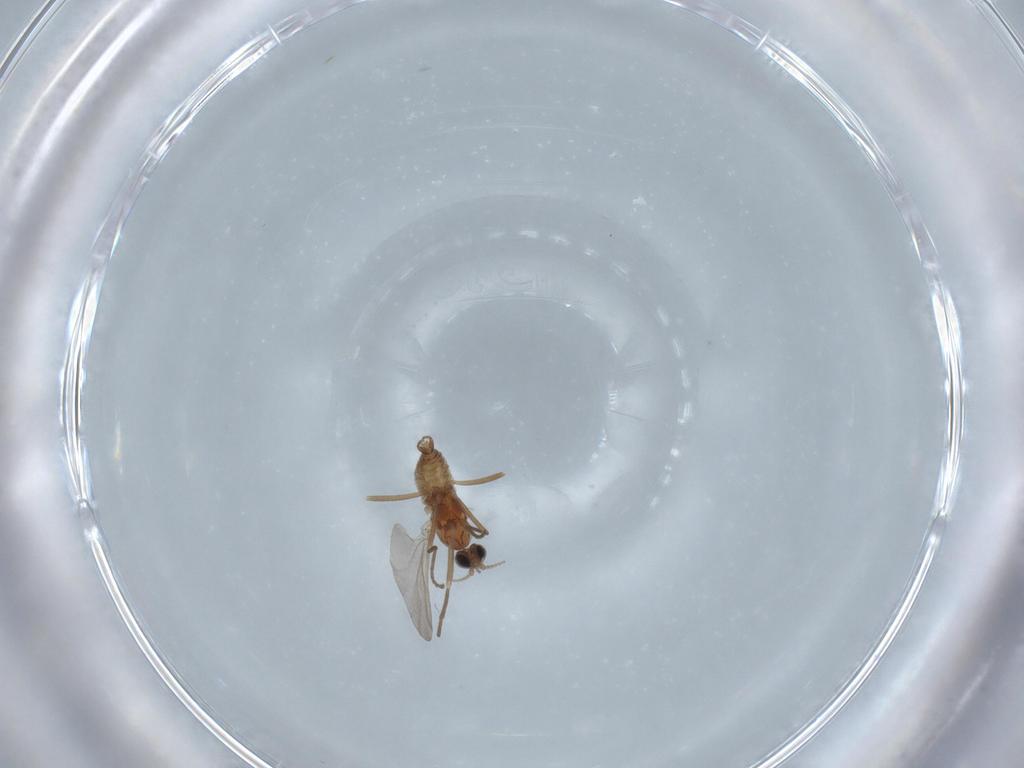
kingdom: Animalia
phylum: Arthropoda
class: Insecta
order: Diptera
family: Cecidomyiidae
